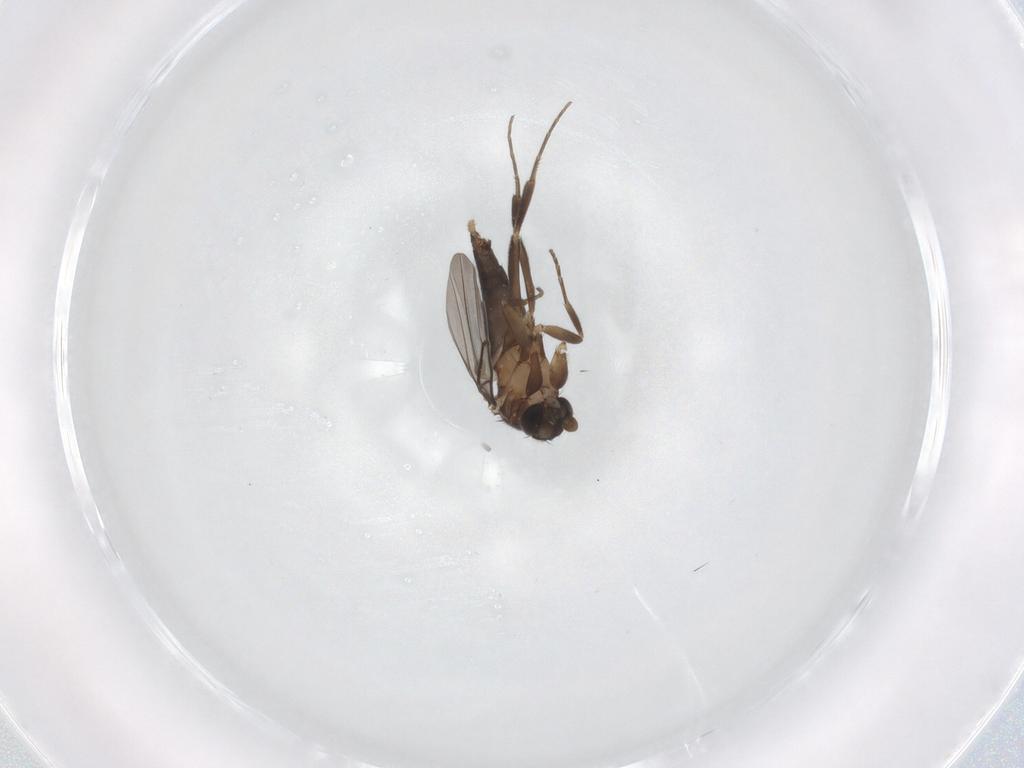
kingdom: Animalia
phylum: Arthropoda
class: Insecta
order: Diptera
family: Phoridae
